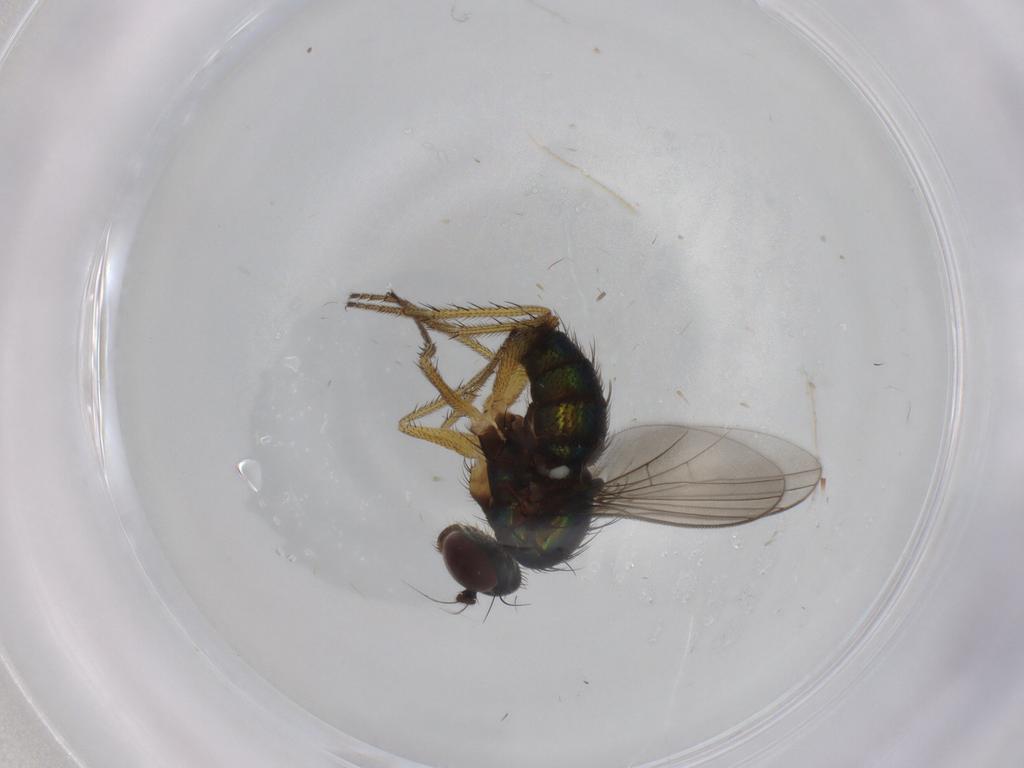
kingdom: Animalia
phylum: Arthropoda
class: Insecta
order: Diptera
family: Dolichopodidae
